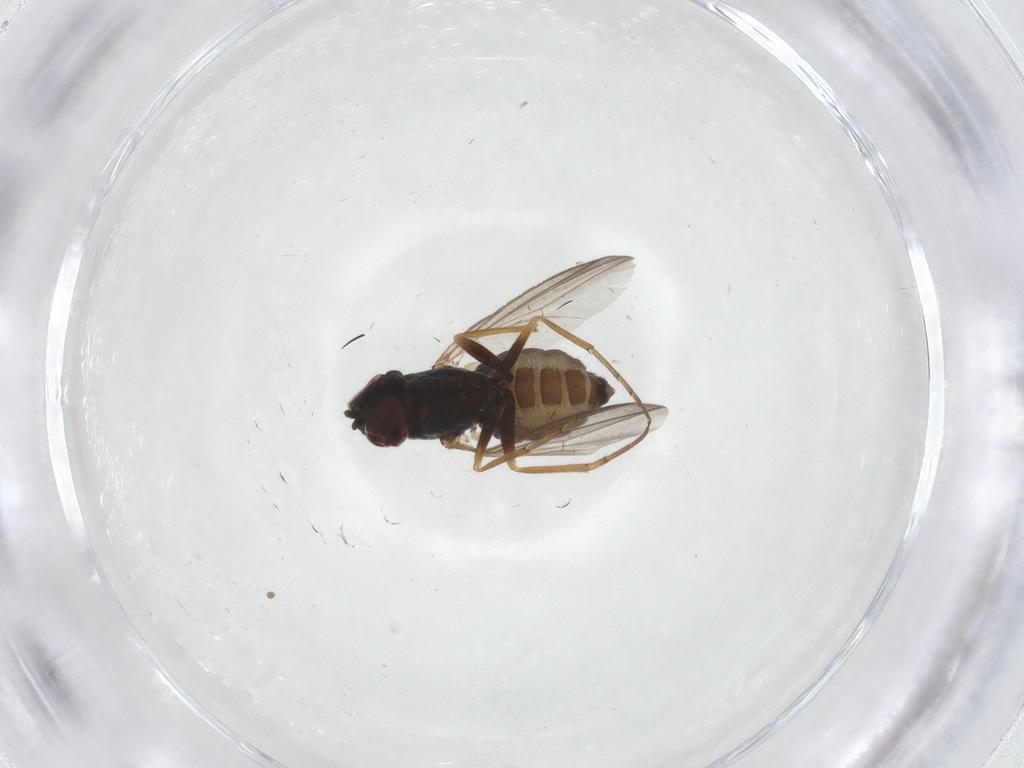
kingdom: Animalia
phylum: Arthropoda
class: Insecta
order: Diptera
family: Dolichopodidae
